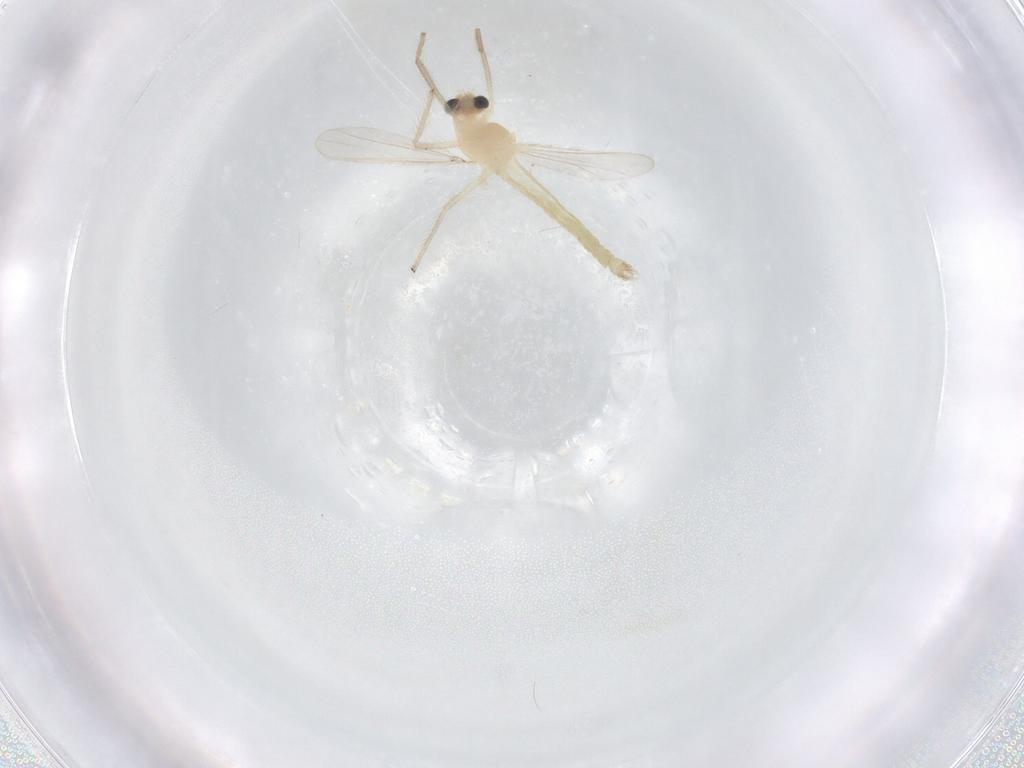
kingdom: Animalia
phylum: Arthropoda
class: Insecta
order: Diptera
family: Chironomidae
